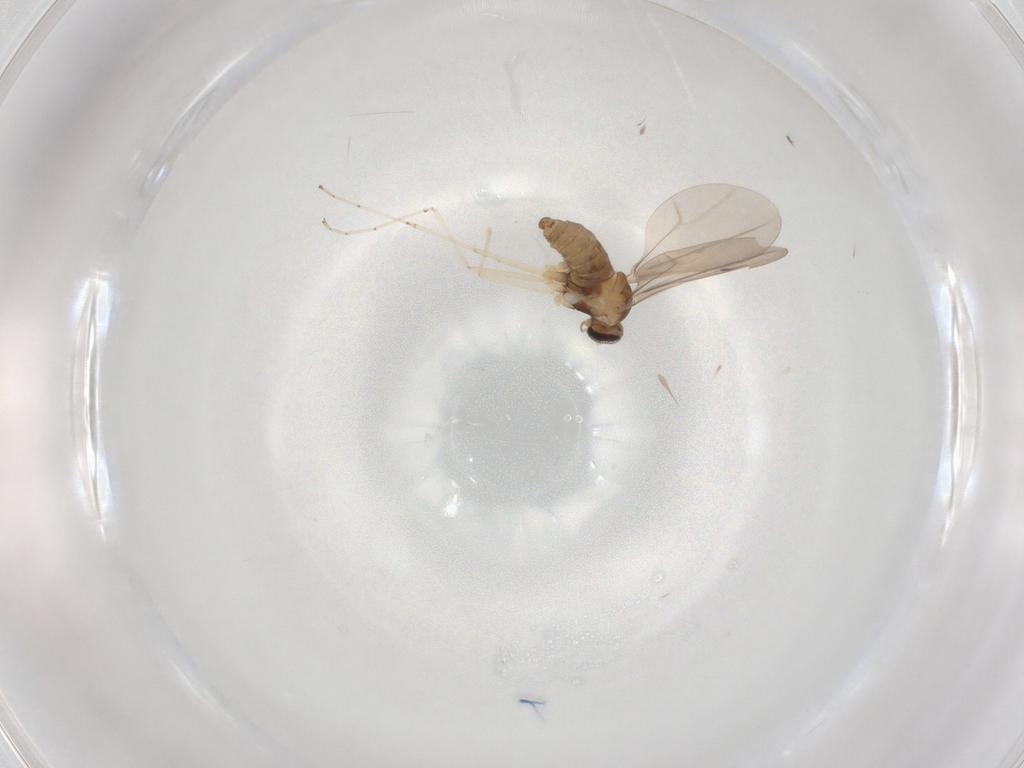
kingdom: Animalia
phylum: Arthropoda
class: Insecta
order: Diptera
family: Cecidomyiidae
